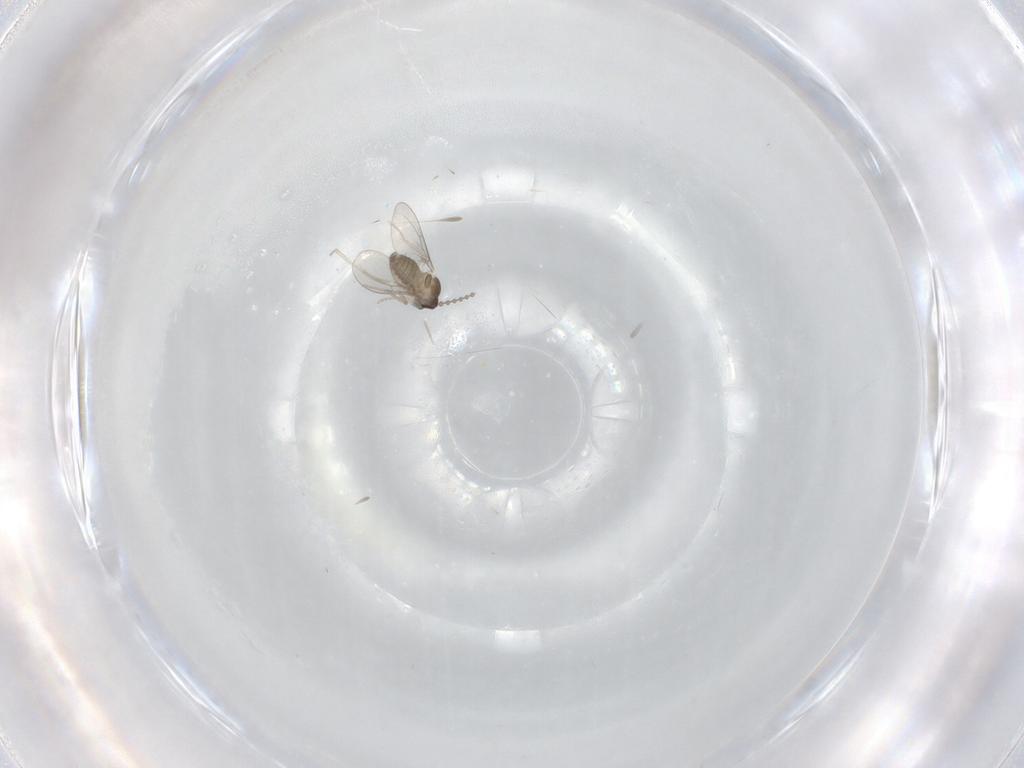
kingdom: Animalia
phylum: Arthropoda
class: Insecta
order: Diptera
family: Cecidomyiidae
